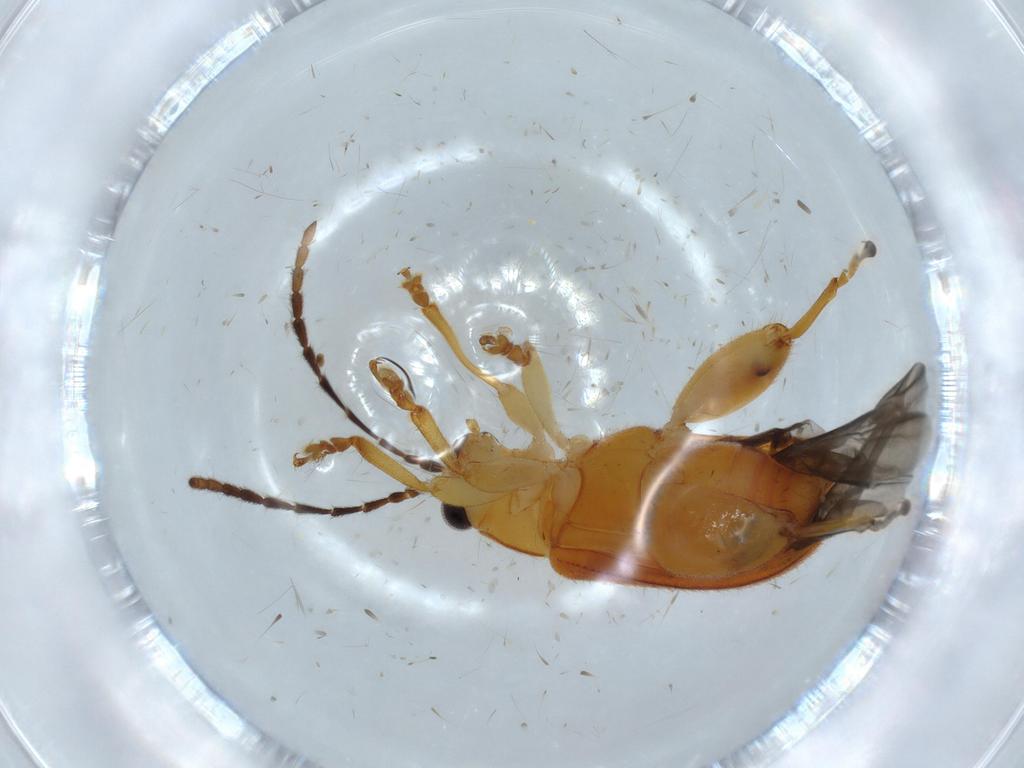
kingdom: Animalia
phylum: Arthropoda
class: Insecta
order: Coleoptera
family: Chrysomelidae
